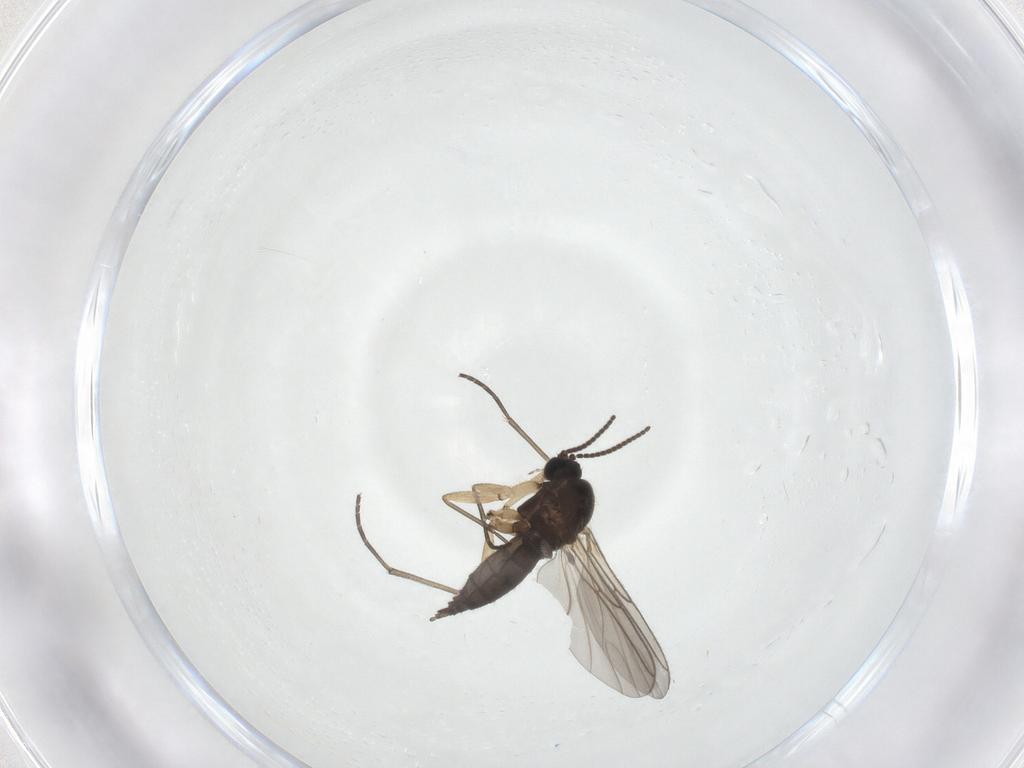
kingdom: Animalia
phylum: Arthropoda
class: Insecta
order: Diptera
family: Sciaridae
